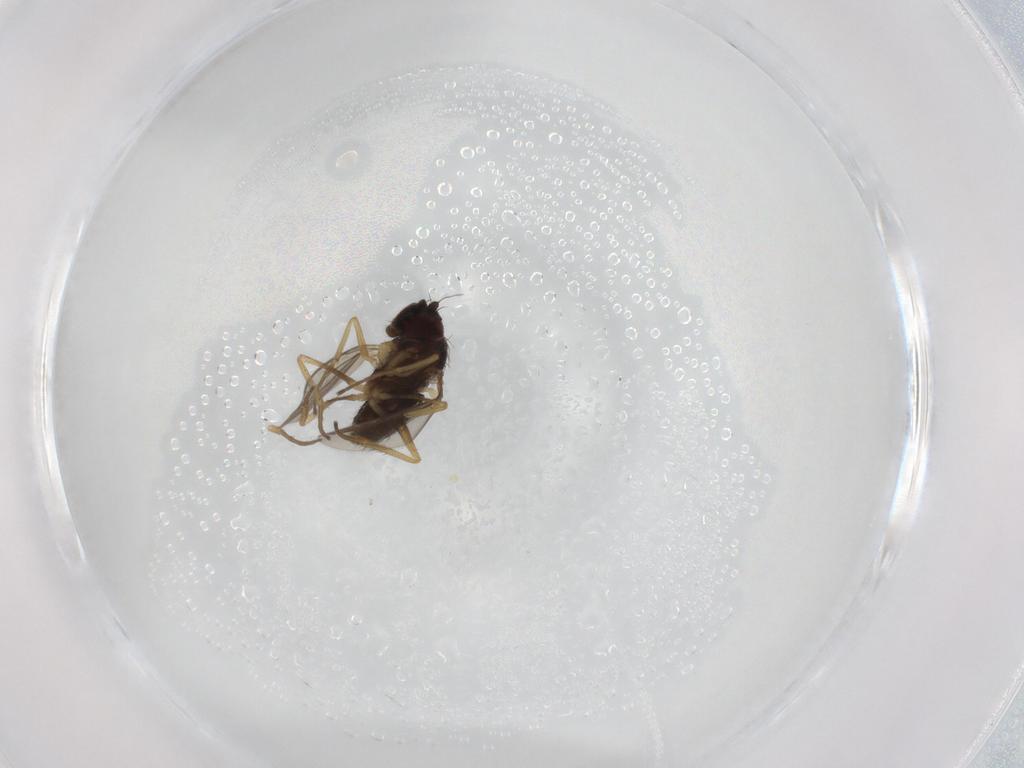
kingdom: Animalia
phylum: Arthropoda
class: Insecta
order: Diptera
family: Dolichopodidae
